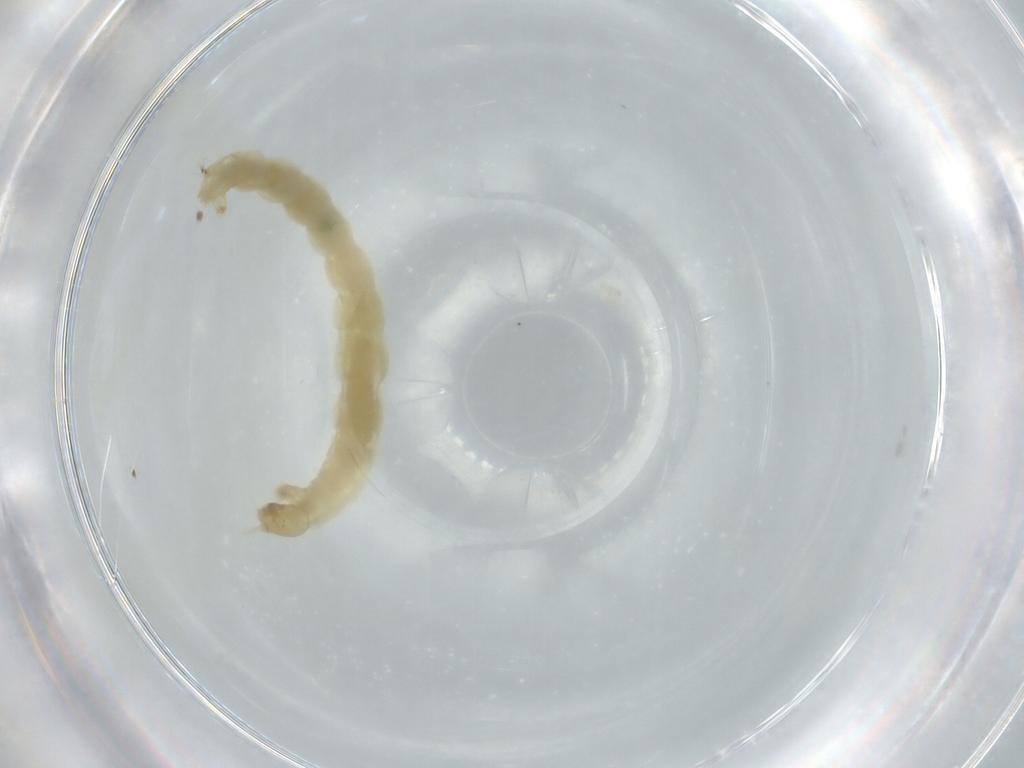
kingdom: Animalia
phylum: Arthropoda
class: Insecta
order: Diptera
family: Chironomidae
